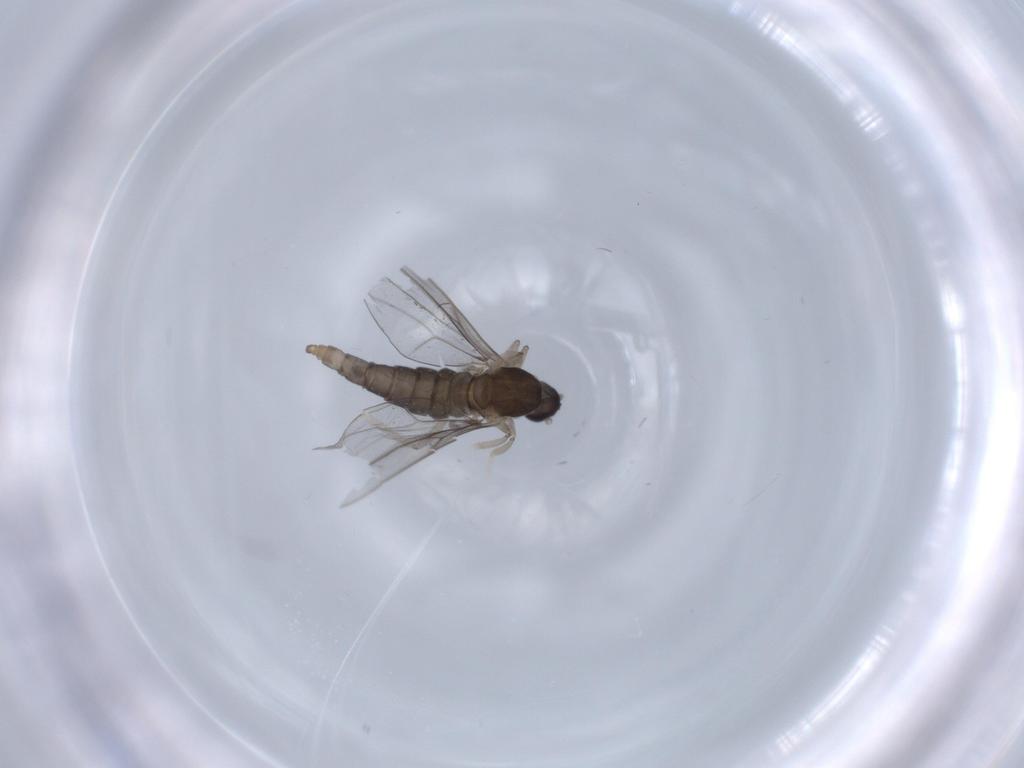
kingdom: Animalia
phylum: Arthropoda
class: Insecta
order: Diptera
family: Cecidomyiidae
